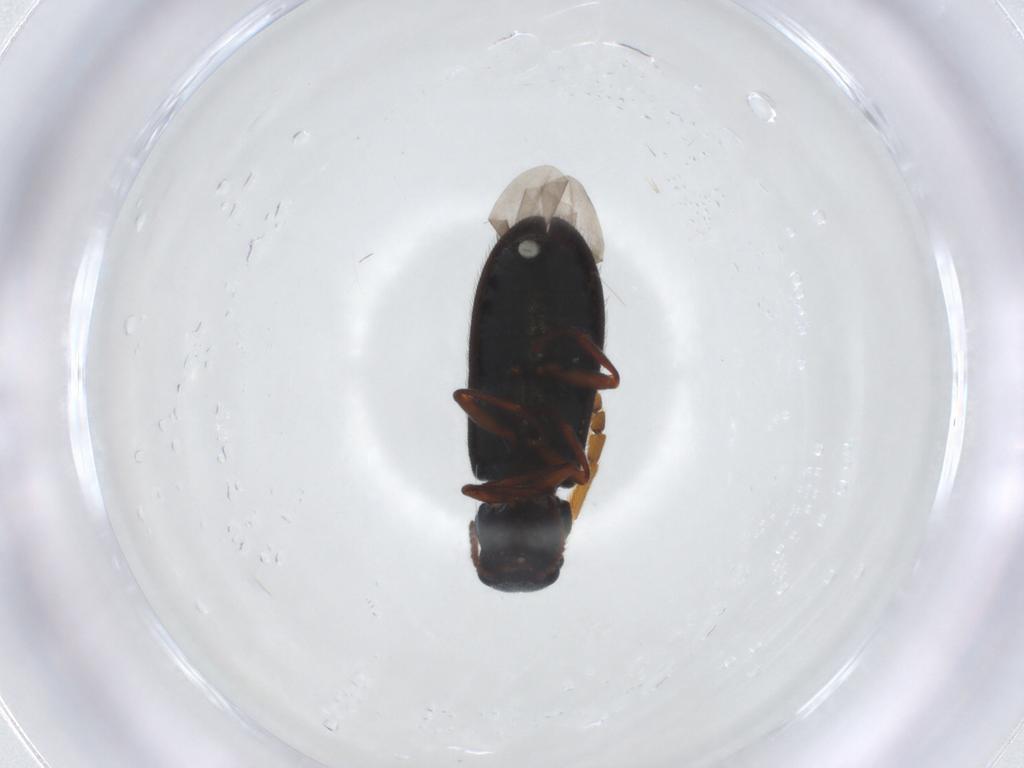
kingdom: Animalia
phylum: Arthropoda
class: Insecta
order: Coleoptera
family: Melyridae
